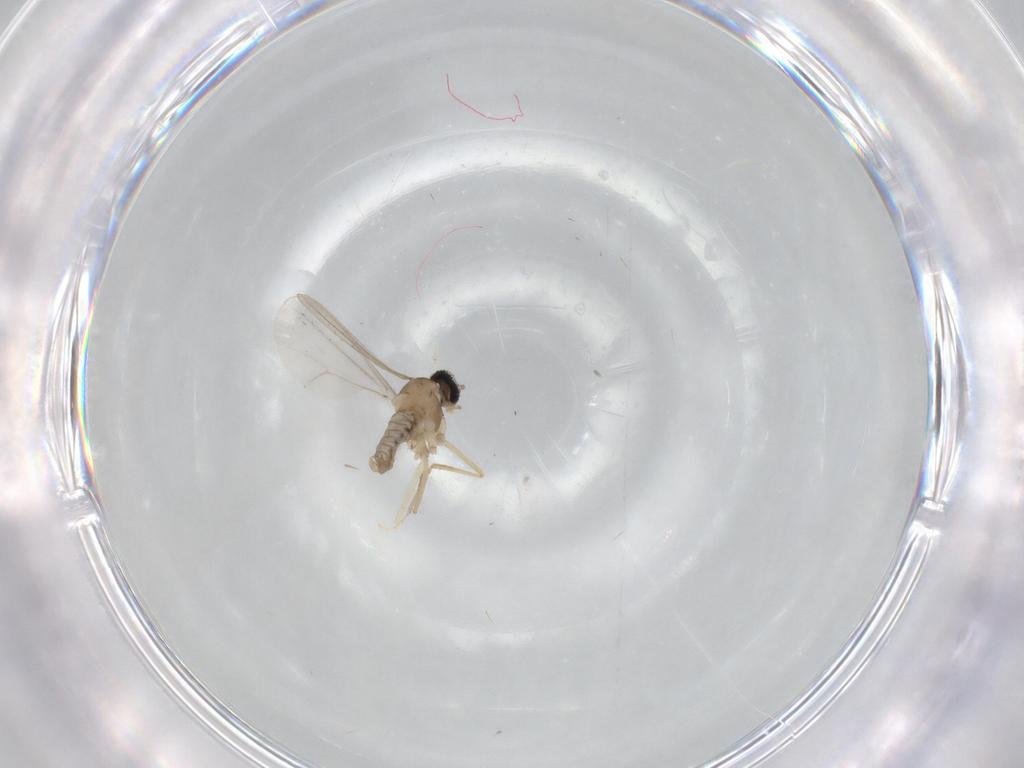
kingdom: Animalia
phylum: Arthropoda
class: Insecta
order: Diptera
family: Cecidomyiidae
